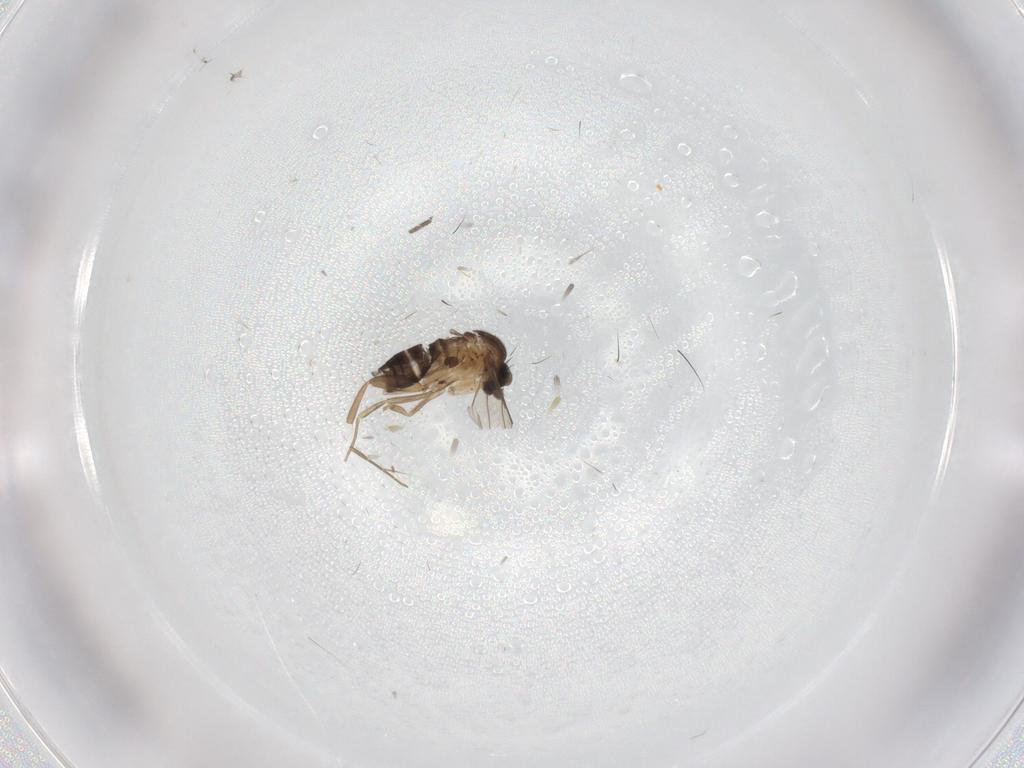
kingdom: Animalia
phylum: Arthropoda
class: Insecta
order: Diptera
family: Sciaridae
